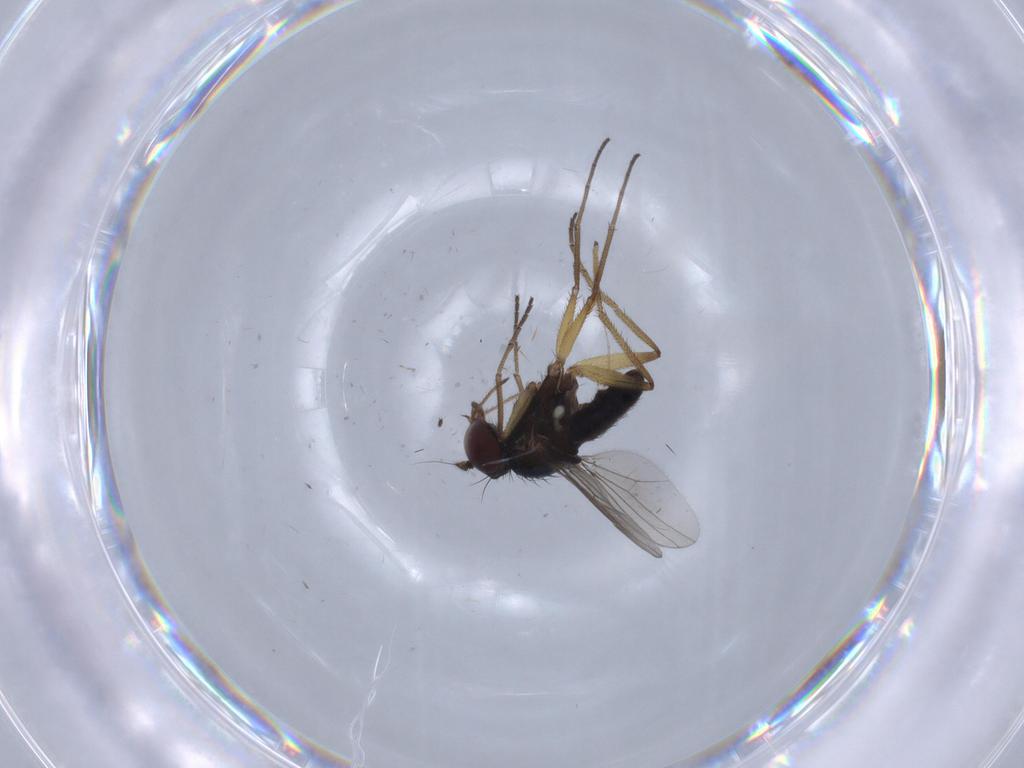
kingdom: Animalia
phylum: Arthropoda
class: Insecta
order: Diptera
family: Dolichopodidae
